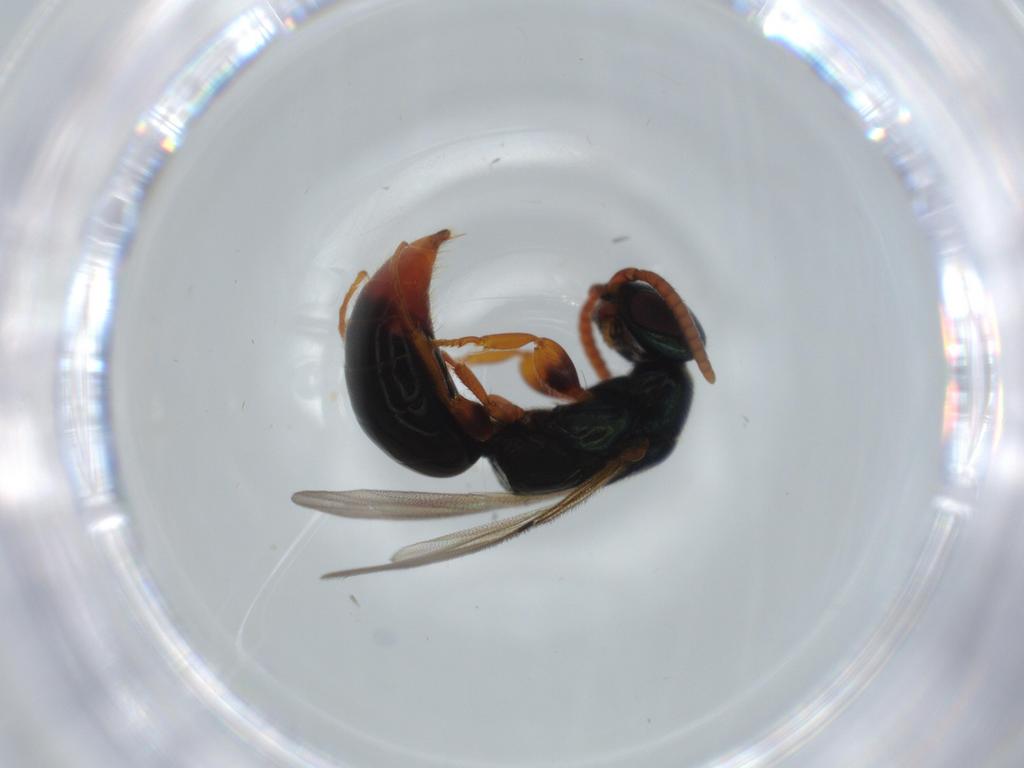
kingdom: Animalia
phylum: Arthropoda
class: Insecta
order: Hymenoptera
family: Bethylidae
